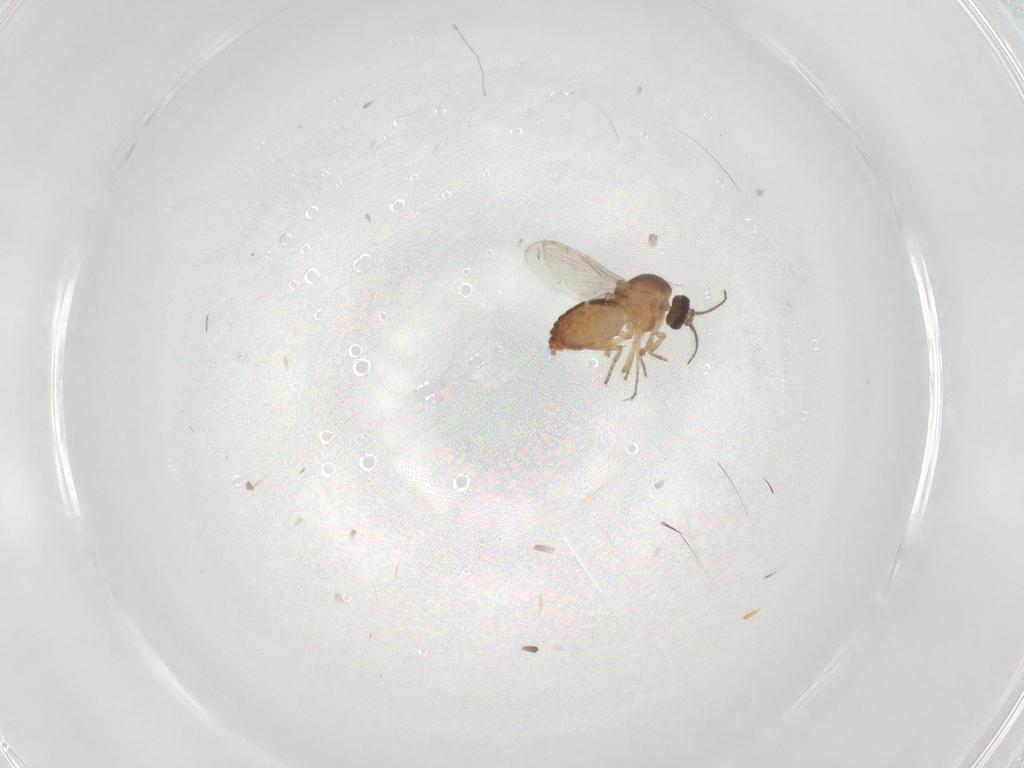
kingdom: Animalia
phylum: Arthropoda
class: Insecta
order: Diptera
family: Ceratopogonidae
